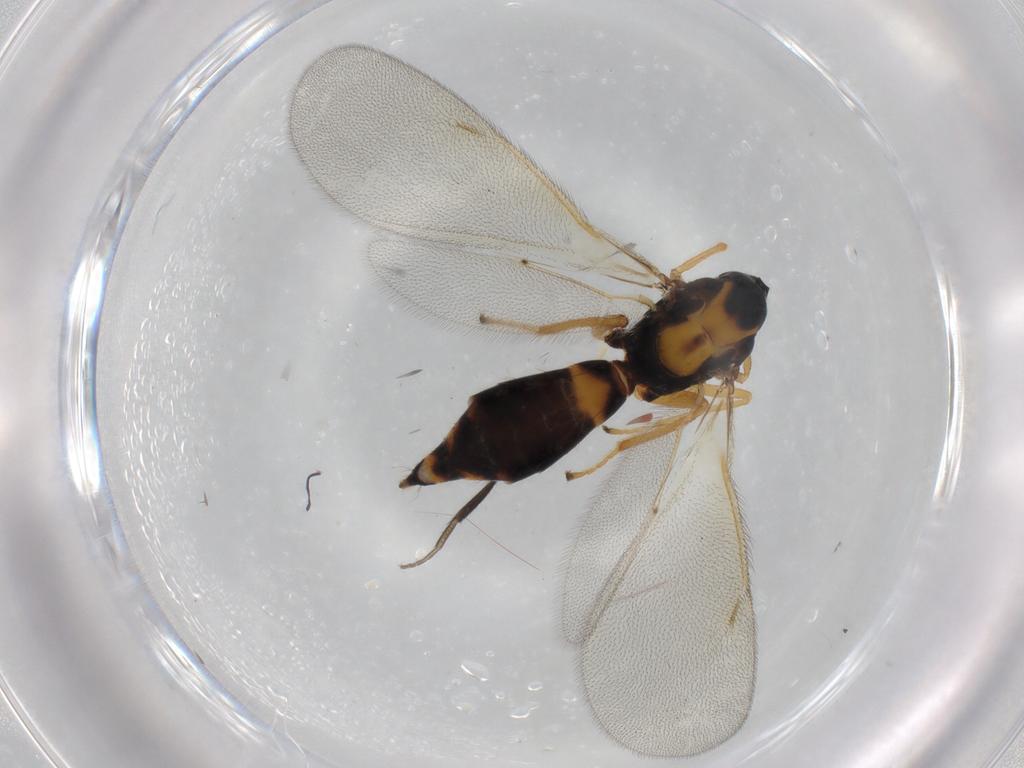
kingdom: Animalia
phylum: Arthropoda
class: Insecta
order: Hymenoptera
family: Eulophidae
